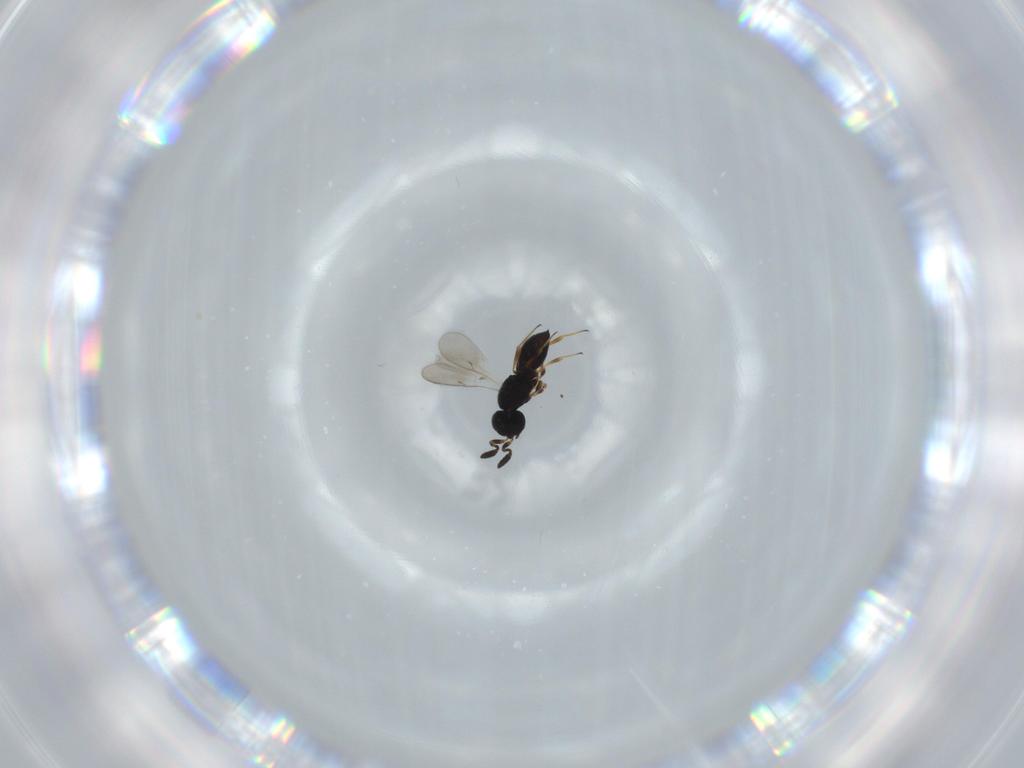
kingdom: Animalia
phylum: Arthropoda
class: Insecta
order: Hymenoptera
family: Scelionidae
